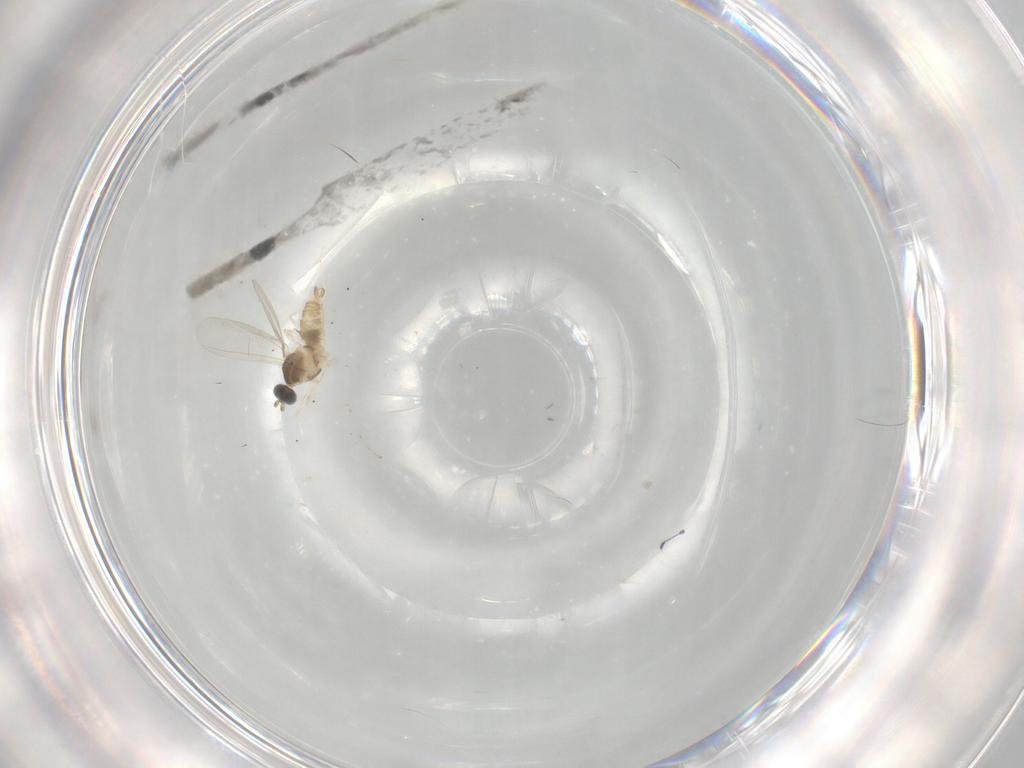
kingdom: Animalia
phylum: Arthropoda
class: Insecta
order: Diptera
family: Cecidomyiidae
